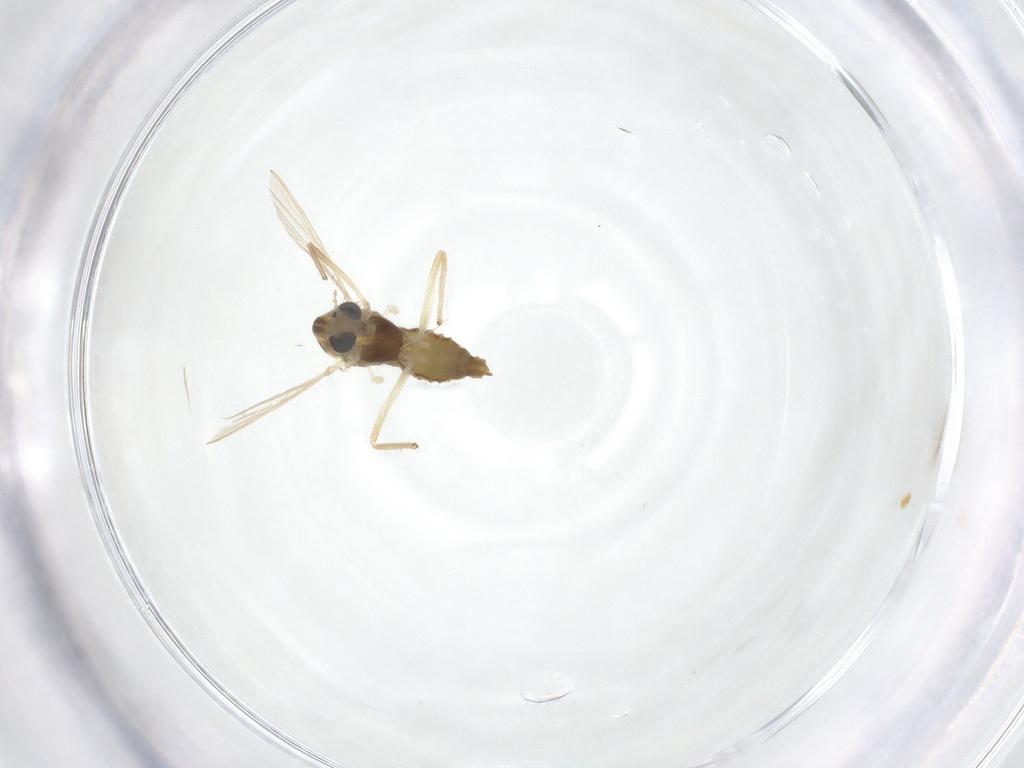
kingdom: Animalia
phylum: Arthropoda
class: Insecta
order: Diptera
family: Chironomidae
